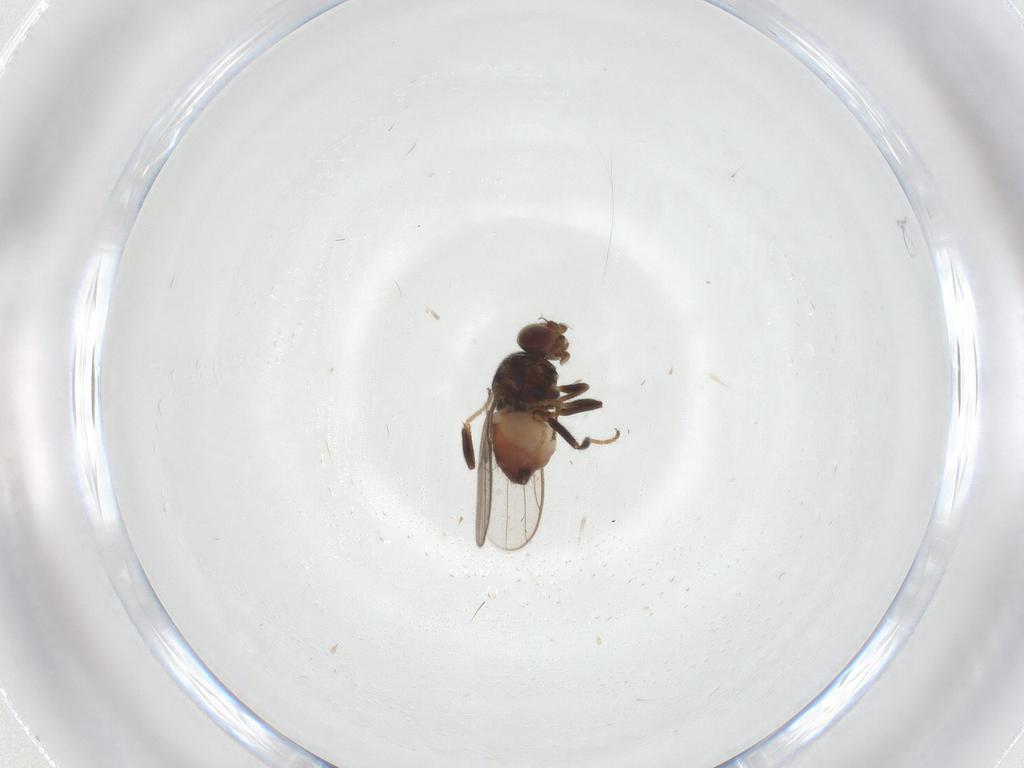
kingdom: Animalia
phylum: Arthropoda
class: Insecta
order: Diptera
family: Chloropidae
